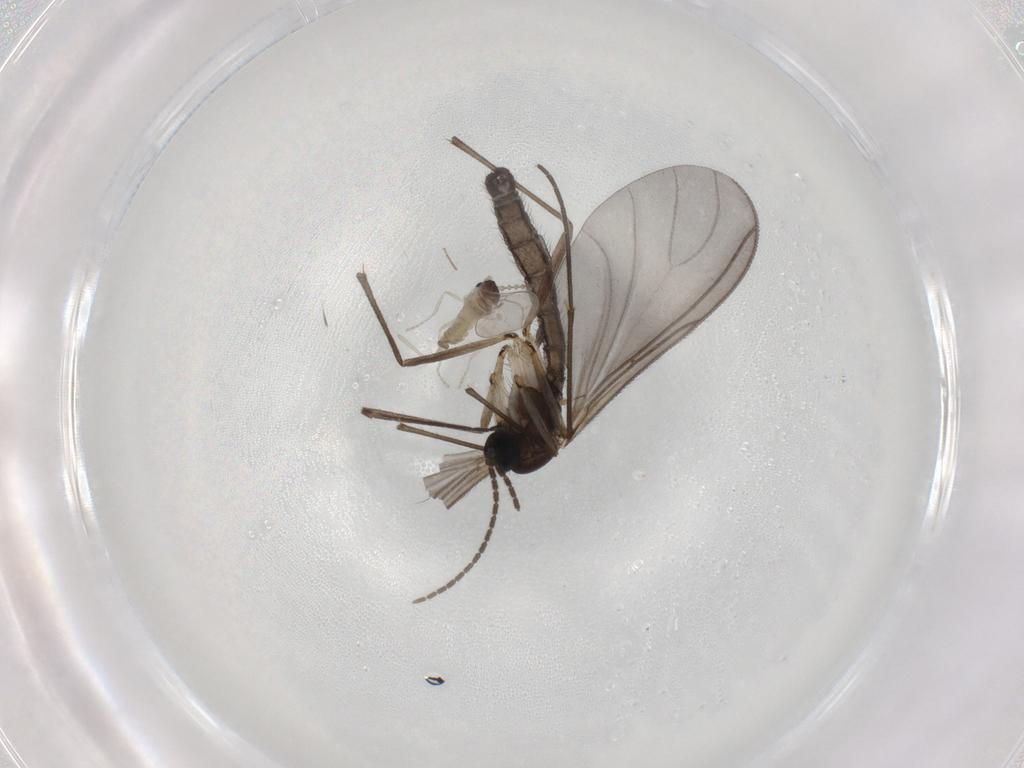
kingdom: Animalia
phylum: Arthropoda
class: Insecta
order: Diptera
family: Sciaridae
